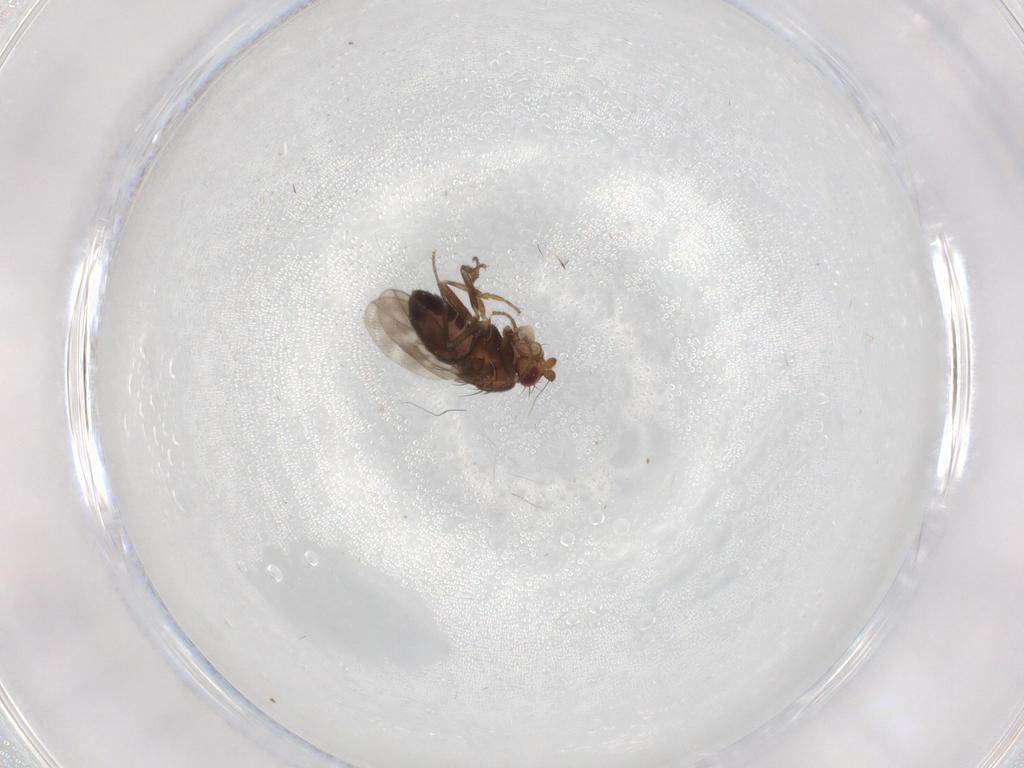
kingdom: Animalia
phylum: Arthropoda
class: Insecta
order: Diptera
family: Sphaeroceridae
